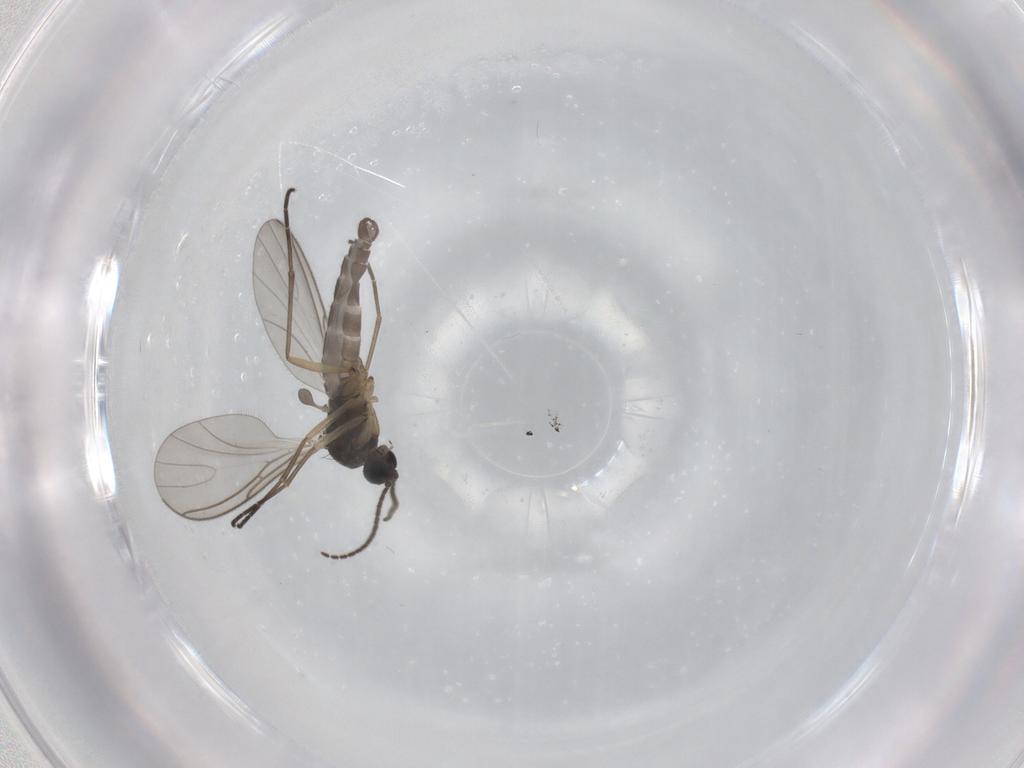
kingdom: Animalia
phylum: Arthropoda
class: Insecta
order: Diptera
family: Sciaridae
